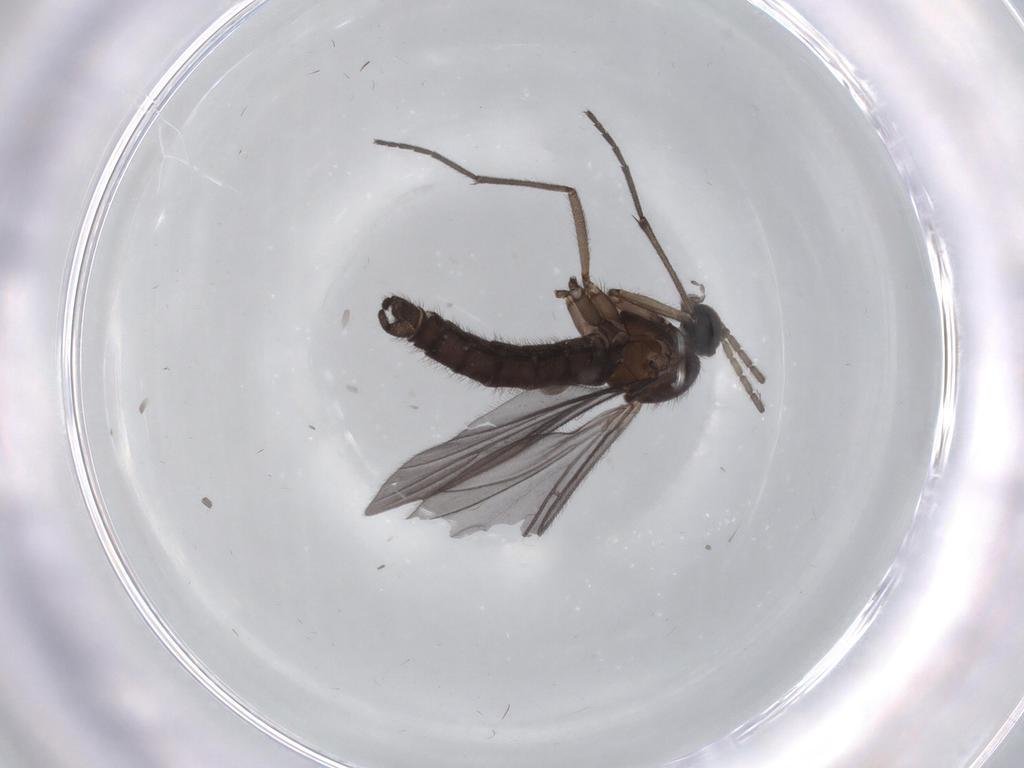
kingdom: Animalia
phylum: Arthropoda
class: Insecta
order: Diptera
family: Sciaridae
